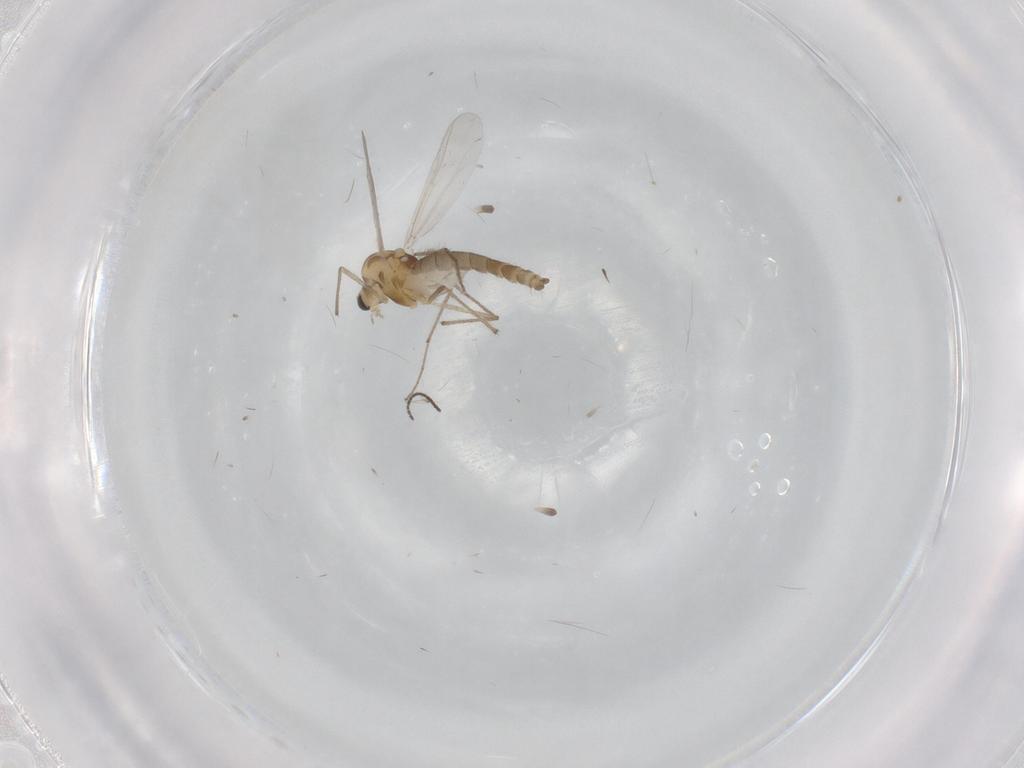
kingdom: Animalia
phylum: Arthropoda
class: Insecta
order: Diptera
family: Chironomidae
